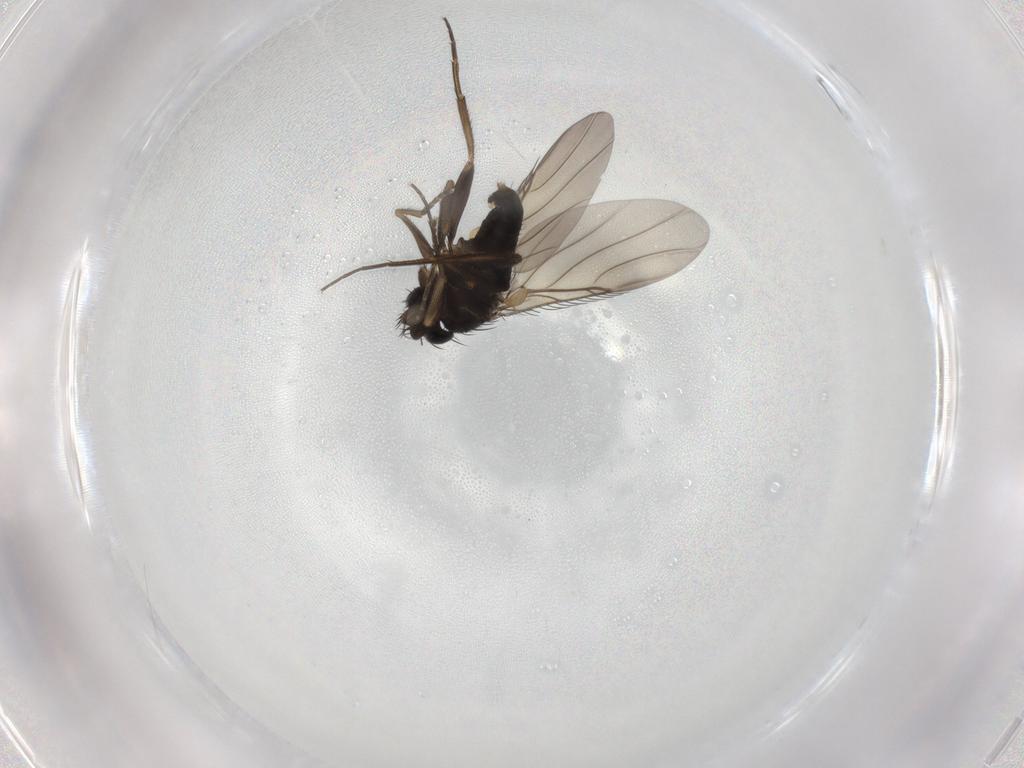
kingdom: Animalia
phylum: Arthropoda
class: Insecta
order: Diptera
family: Phoridae
